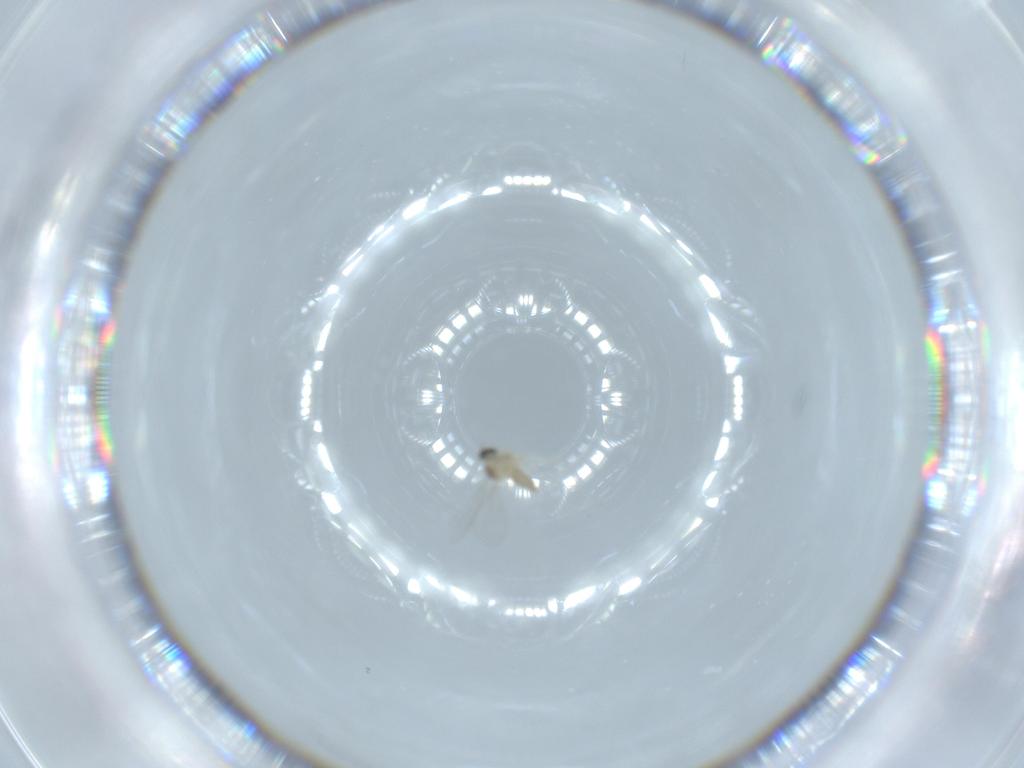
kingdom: Animalia
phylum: Arthropoda
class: Insecta
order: Diptera
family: Cecidomyiidae
